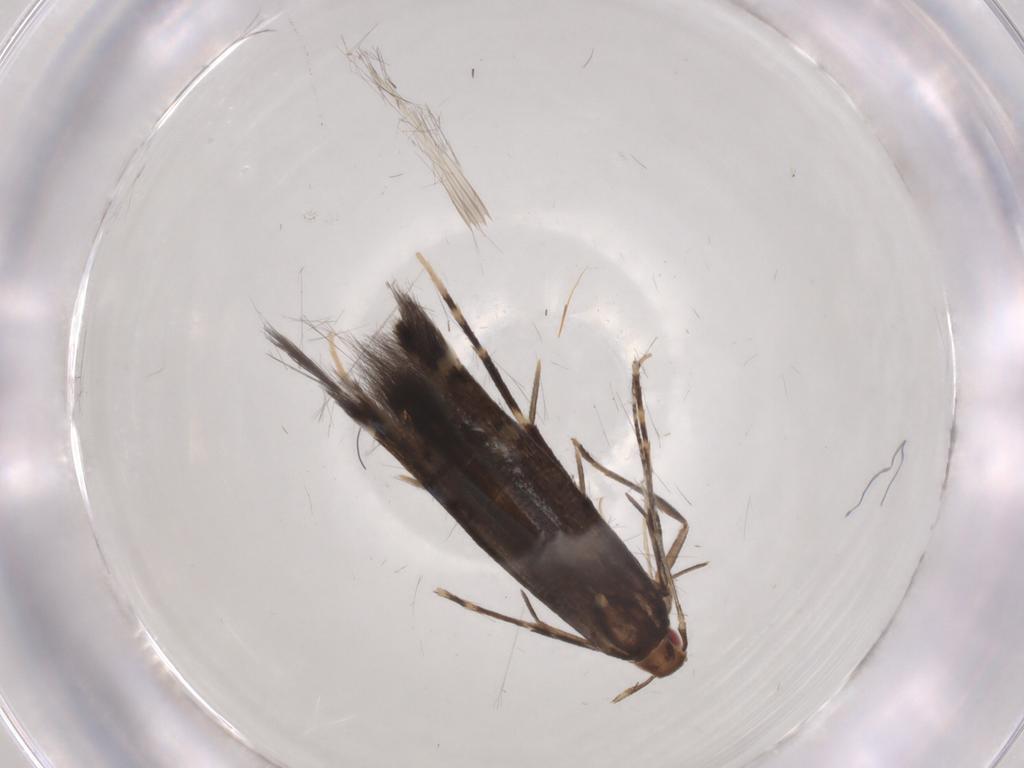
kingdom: Animalia
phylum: Arthropoda
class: Insecta
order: Lepidoptera
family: Cosmopterigidae
